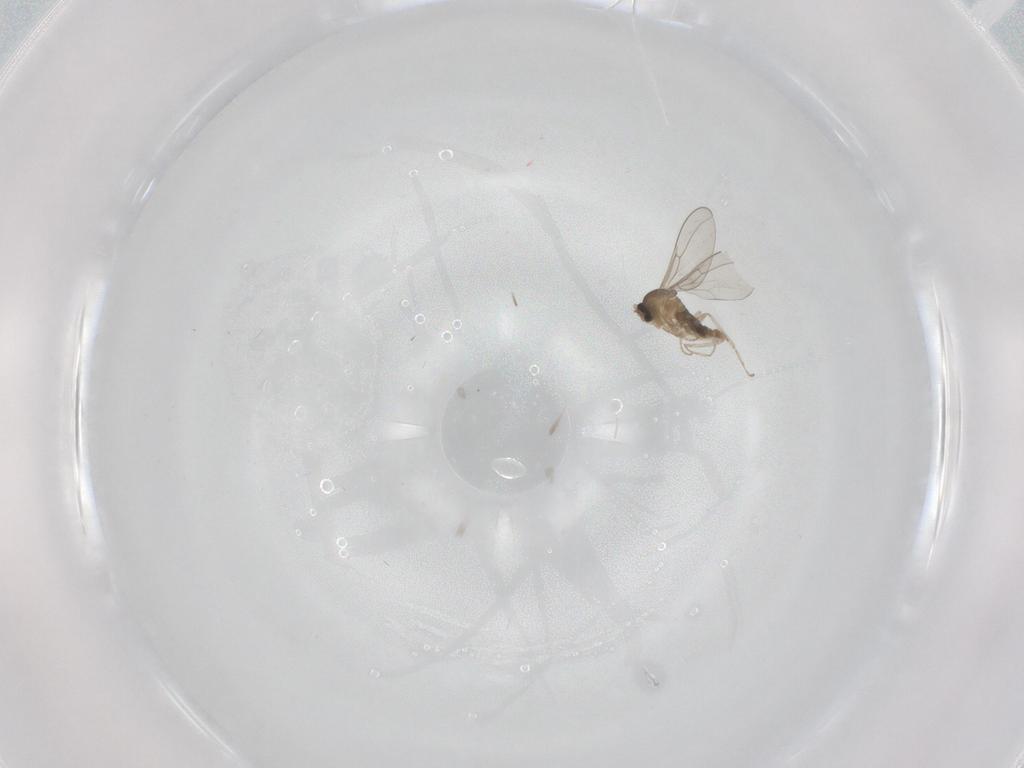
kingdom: Animalia
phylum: Arthropoda
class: Insecta
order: Diptera
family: Cecidomyiidae
